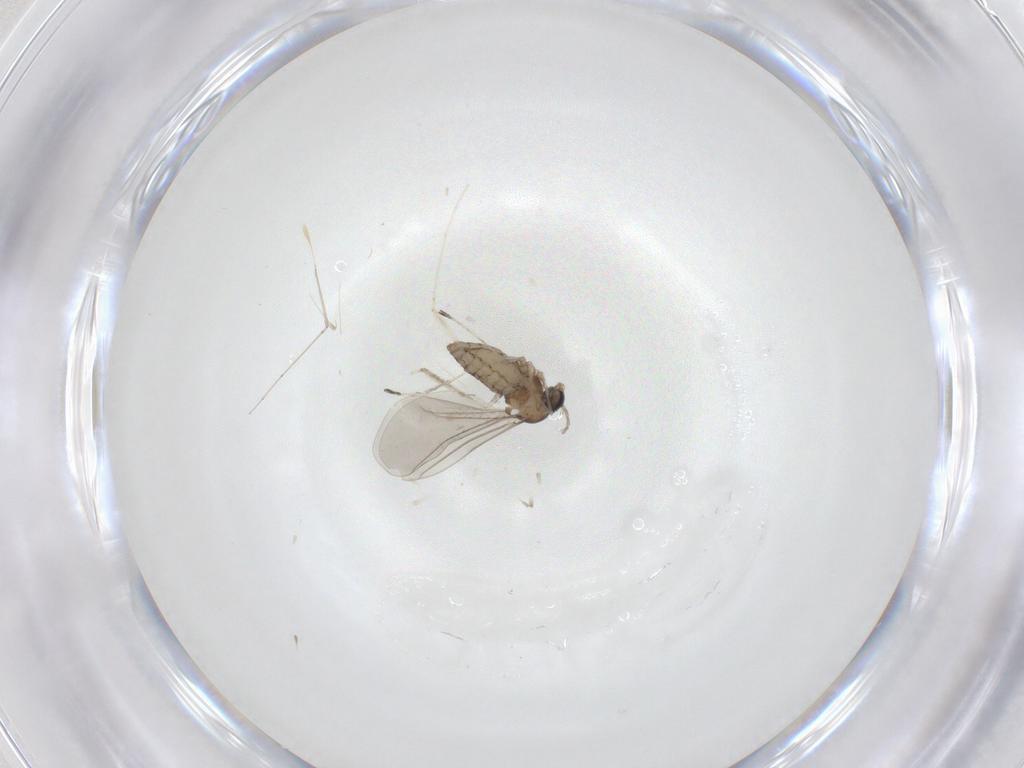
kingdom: Animalia
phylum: Arthropoda
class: Insecta
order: Diptera
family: Cecidomyiidae
